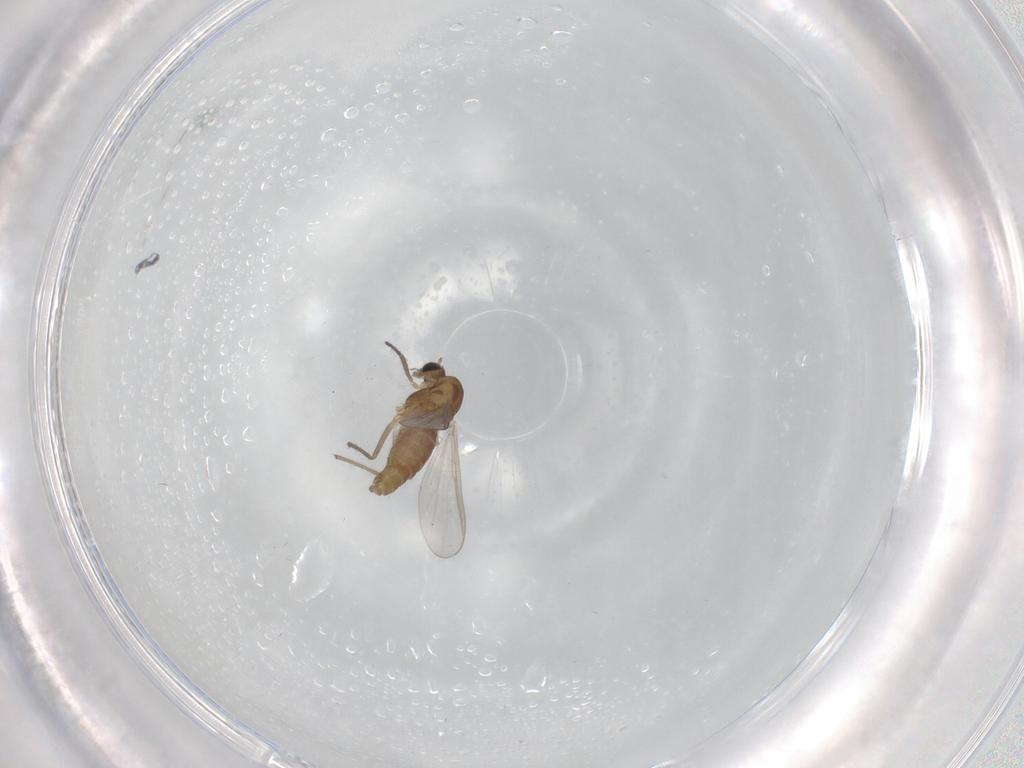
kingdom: Animalia
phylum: Arthropoda
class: Insecta
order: Diptera
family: Chironomidae
